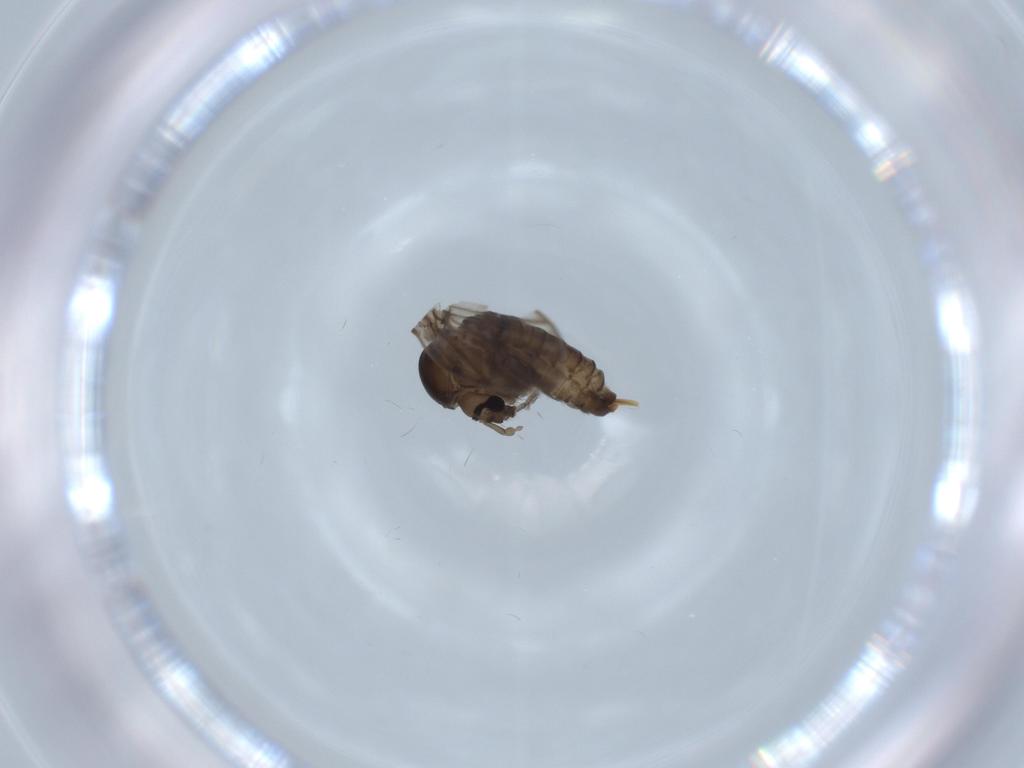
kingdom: Animalia
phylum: Arthropoda
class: Insecta
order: Diptera
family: Psychodidae
